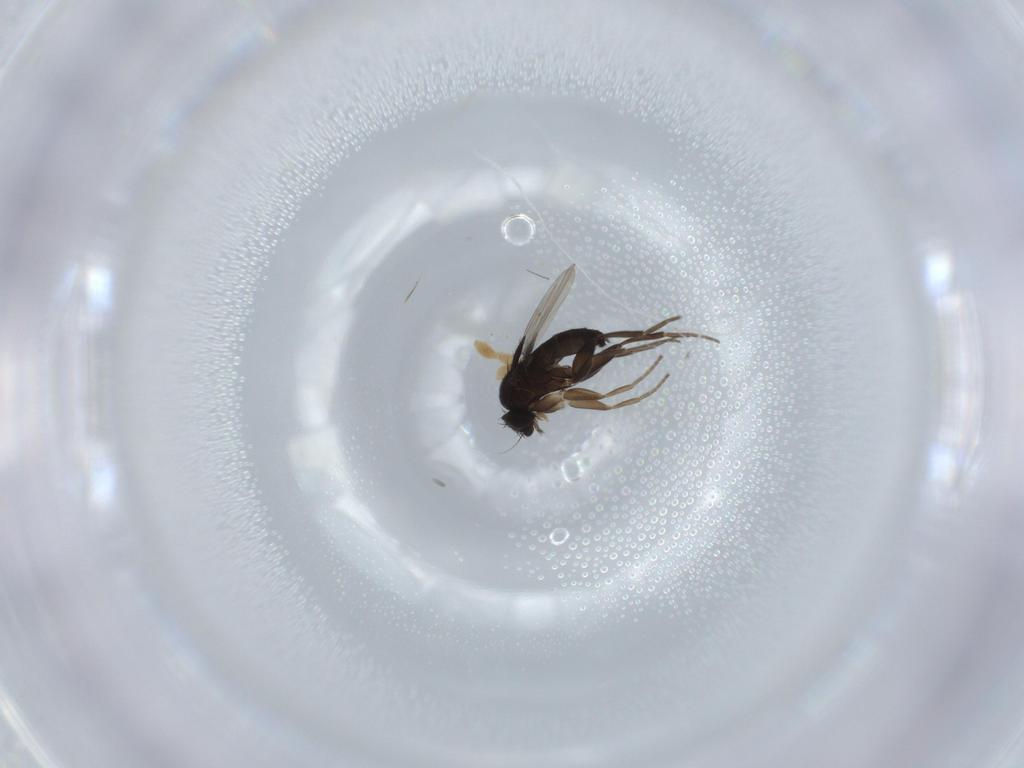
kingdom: Animalia
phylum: Arthropoda
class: Insecta
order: Diptera
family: Phoridae
